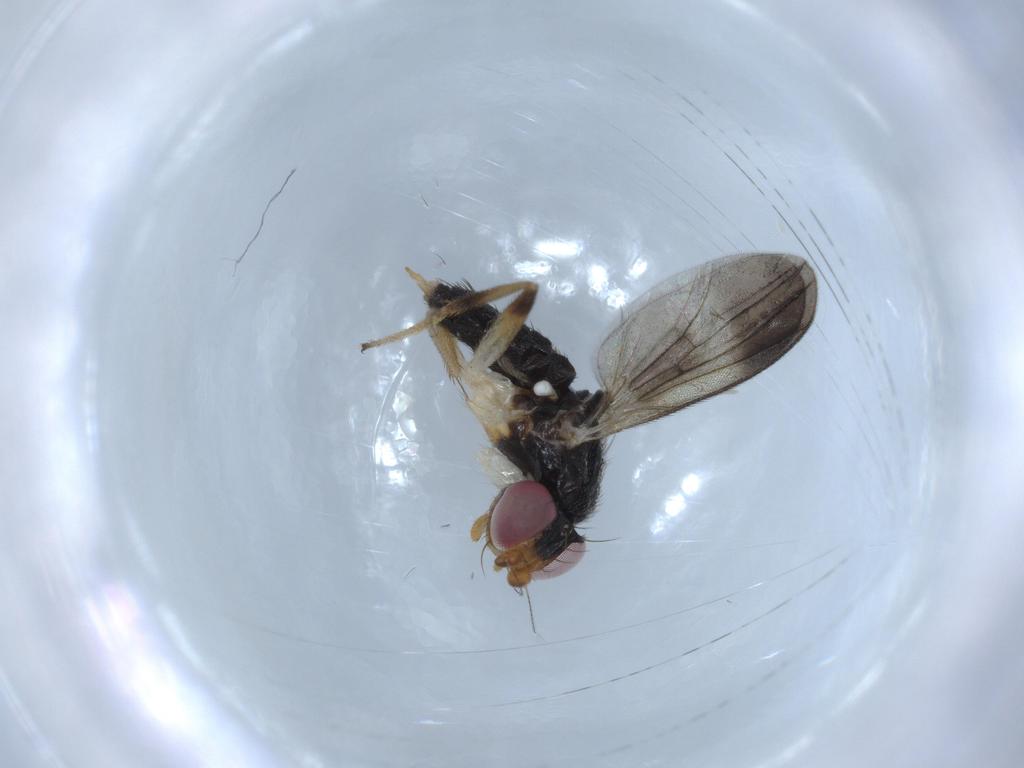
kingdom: Animalia
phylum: Arthropoda
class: Insecta
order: Diptera
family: Clusiidae
